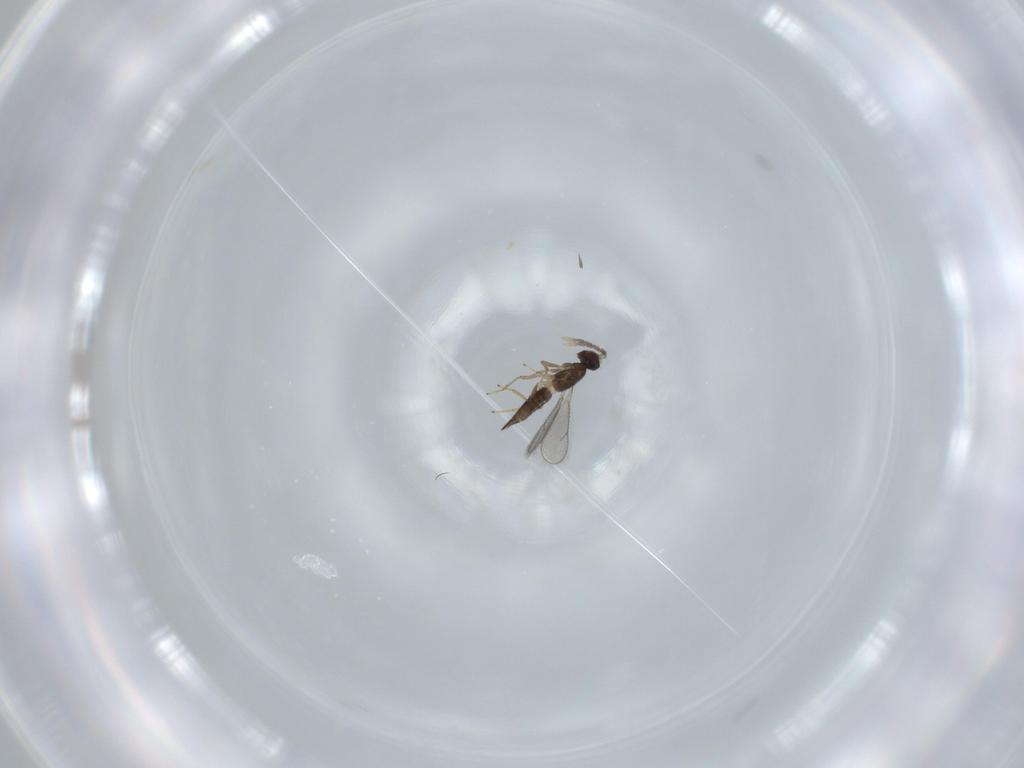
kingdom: Animalia
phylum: Arthropoda
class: Insecta
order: Hymenoptera
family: Eulophidae
